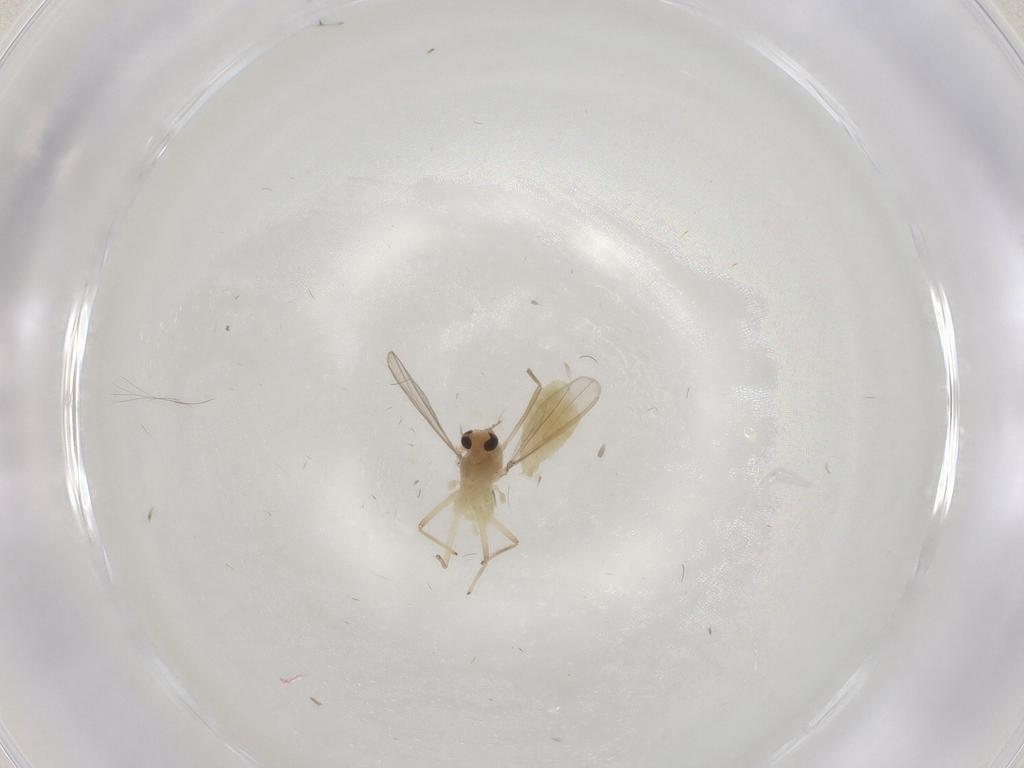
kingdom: Animalia
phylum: Arthropoda
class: Insecta
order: Diptera
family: Chironomidae
